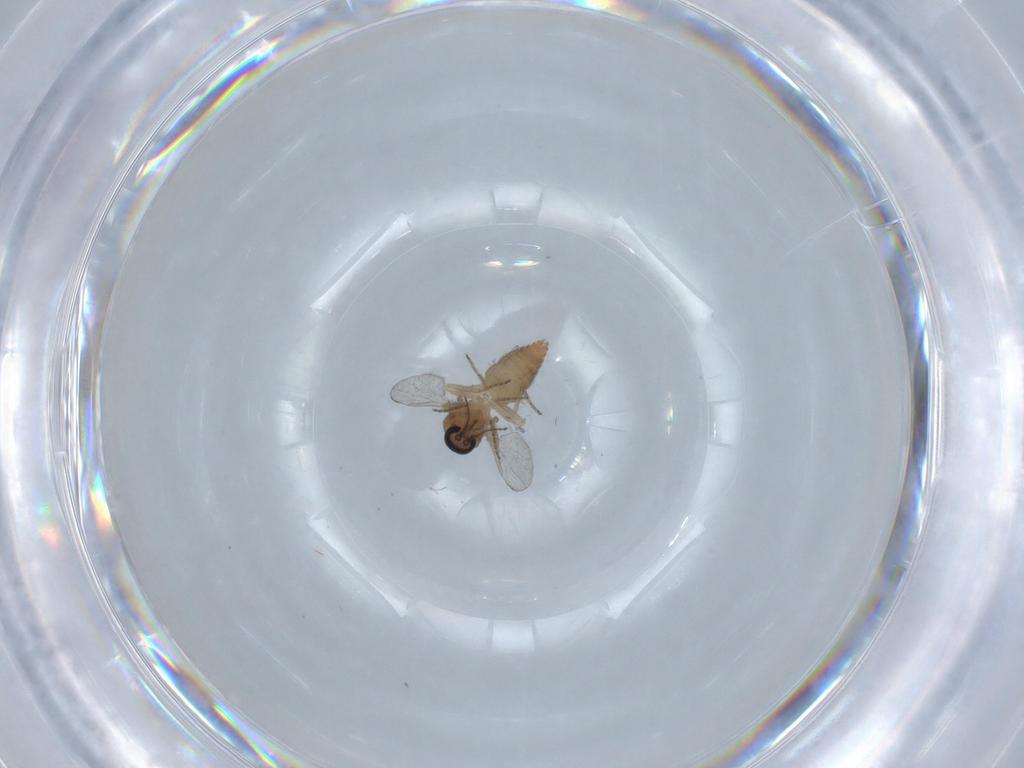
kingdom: Animalia
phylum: Arthropoda
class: Insecta
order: Diptera
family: Ceratopogonidae
